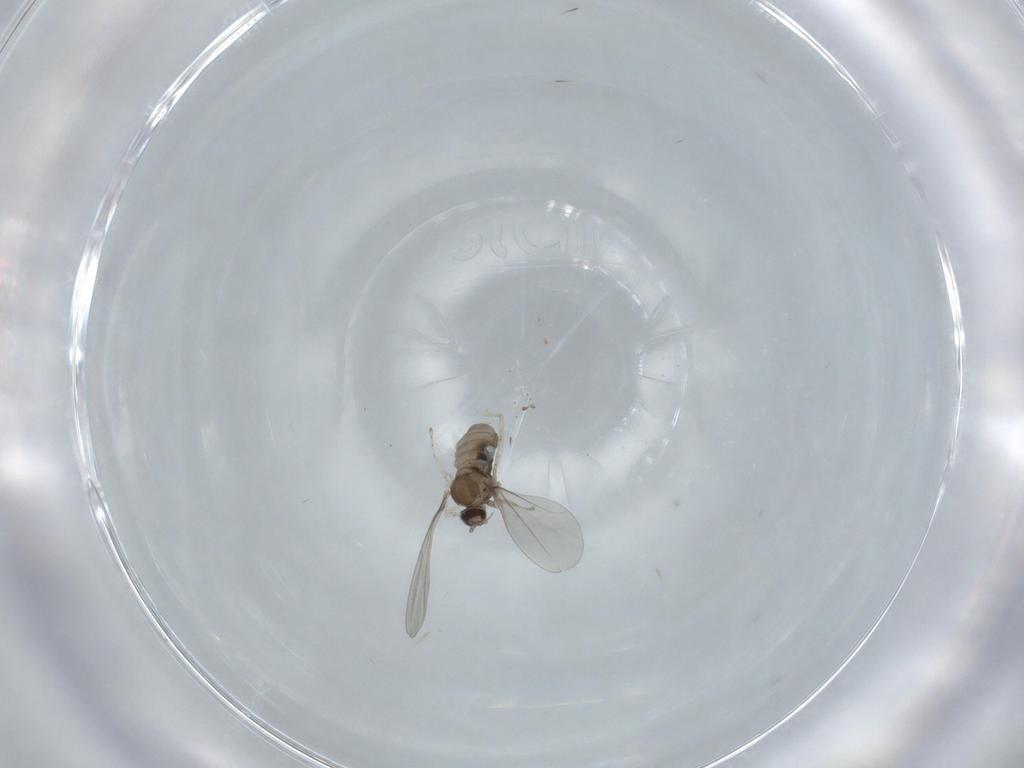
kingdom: Animalia
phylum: Arthropoda
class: Insecta
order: Diptera
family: Cecidomyiidae
